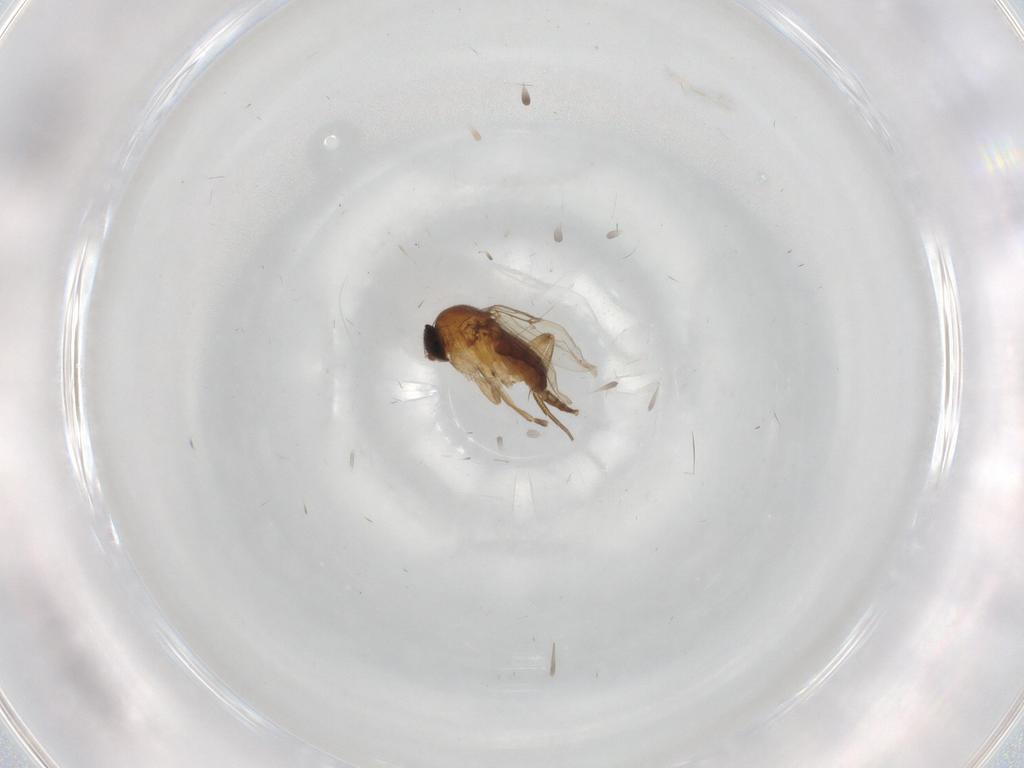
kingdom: Animalia
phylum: Arthropoda
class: Insecta
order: Diptera
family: Phoridae
